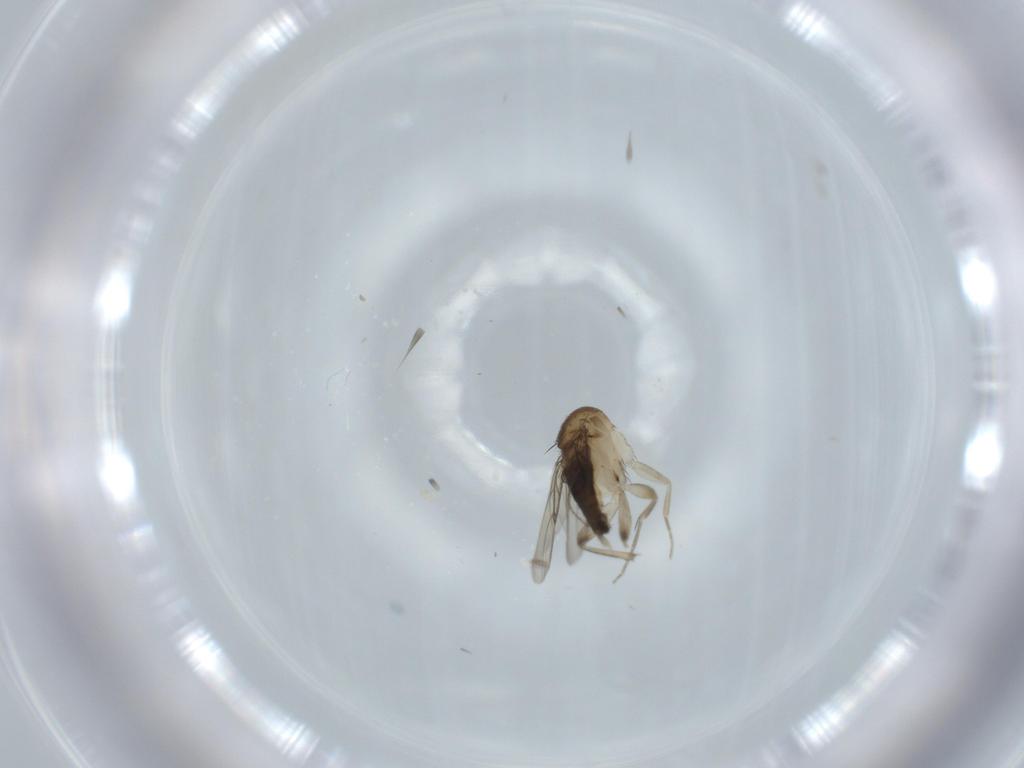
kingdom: Animalia
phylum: Arthropoda
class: Insecta
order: Diptera
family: Phoridae
